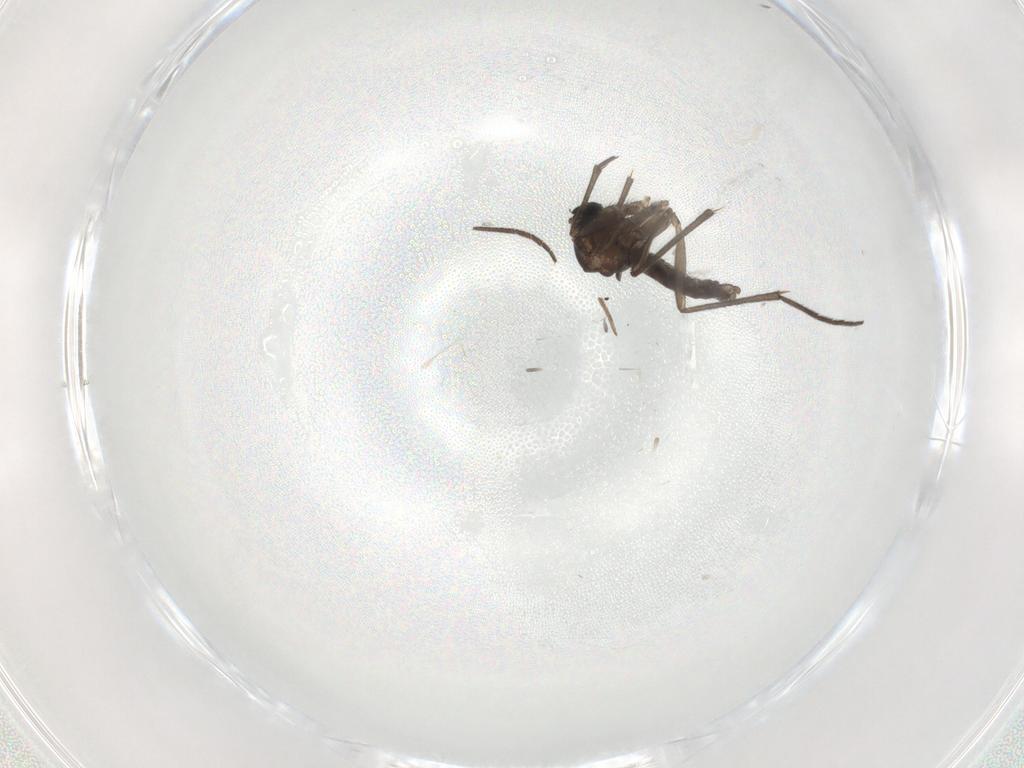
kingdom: Animalia
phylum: Arthropoda
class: Insecta
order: Diptera
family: Sciaridae
